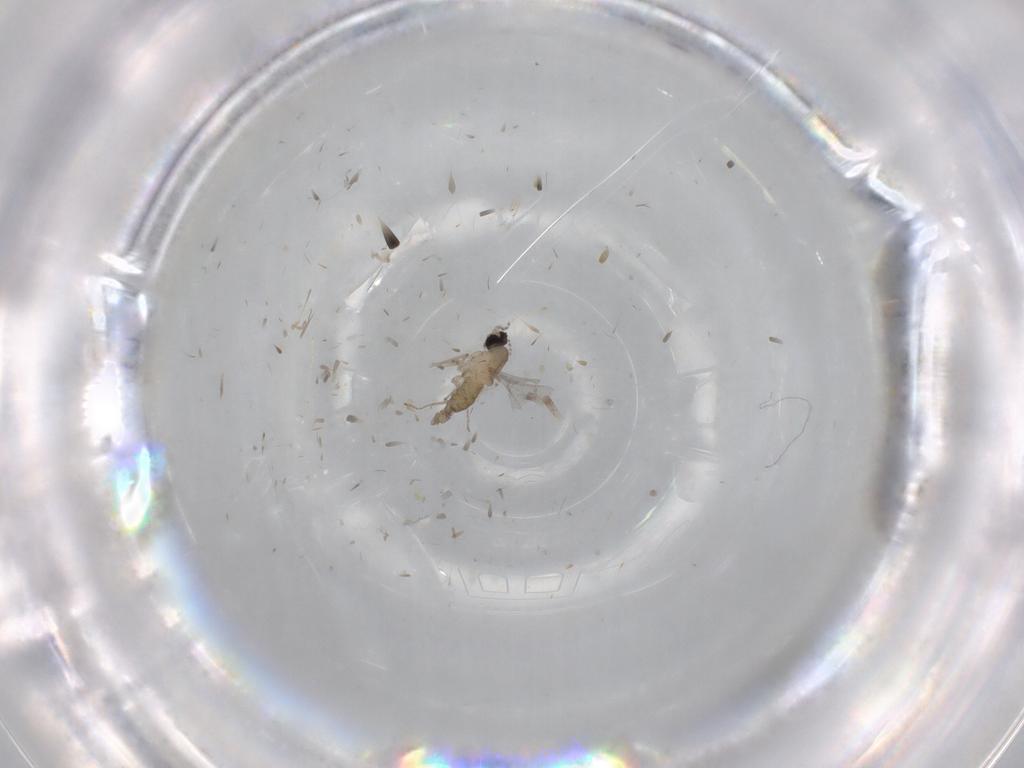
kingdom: Animalia
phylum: Arthropoda
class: Insecta
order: Diptera
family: Cecidomyiidae
